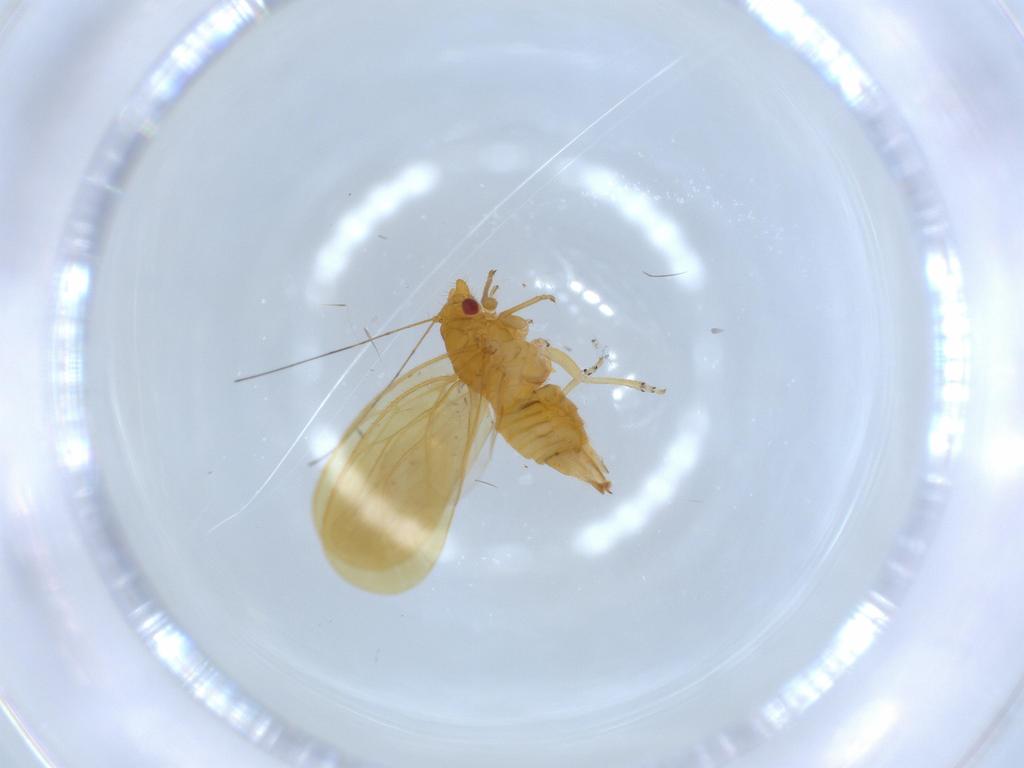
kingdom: Animalia
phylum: Arthropoda
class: Insecta
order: Hemiptera
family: Psyllidae
